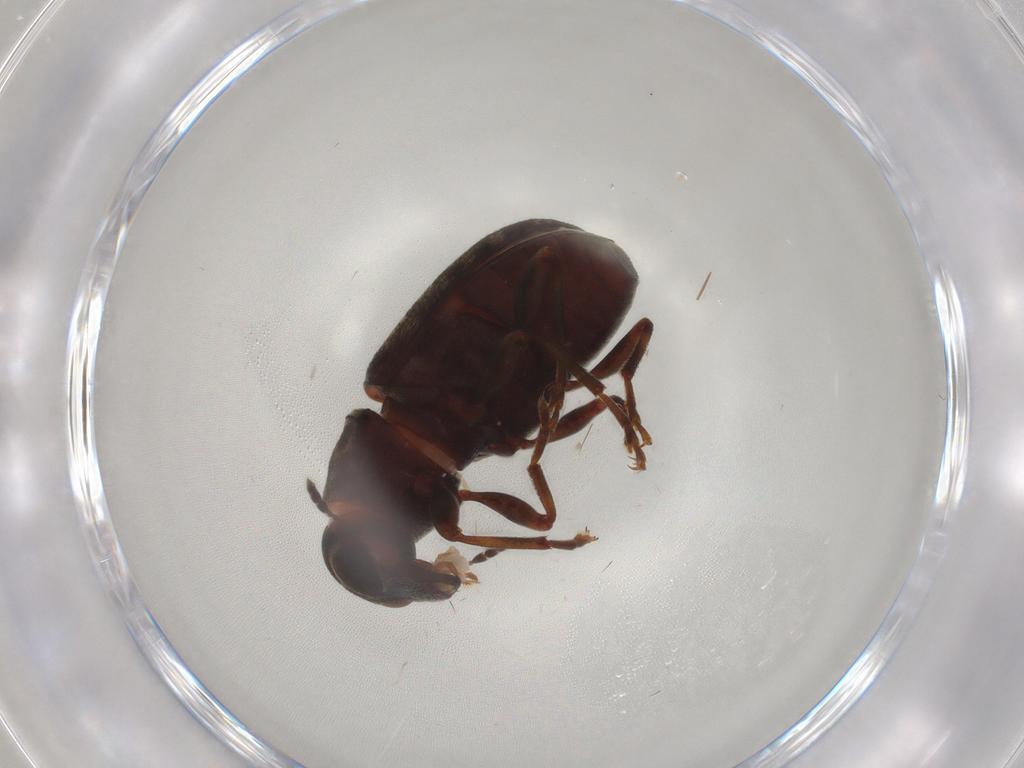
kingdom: Animalia
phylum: Arthropoda
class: Insecta
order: Coleoptera
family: Anthribidae
